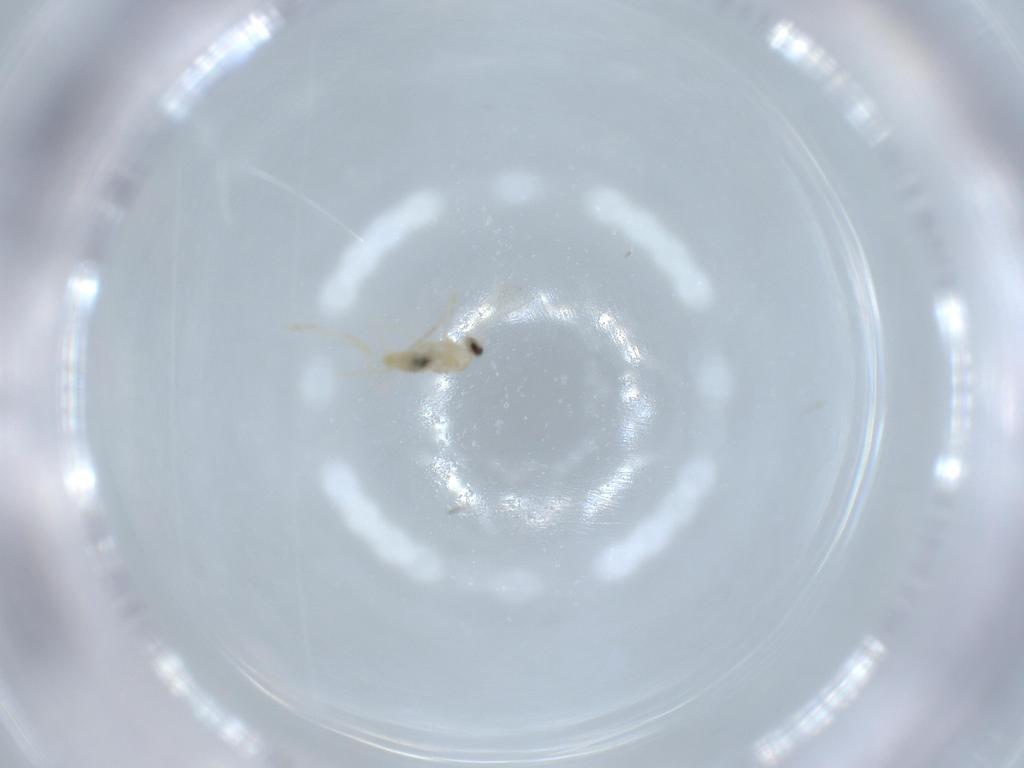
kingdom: Animalia
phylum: Arthropoda
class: Insecta
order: Diptera
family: Cecidomyiidae
